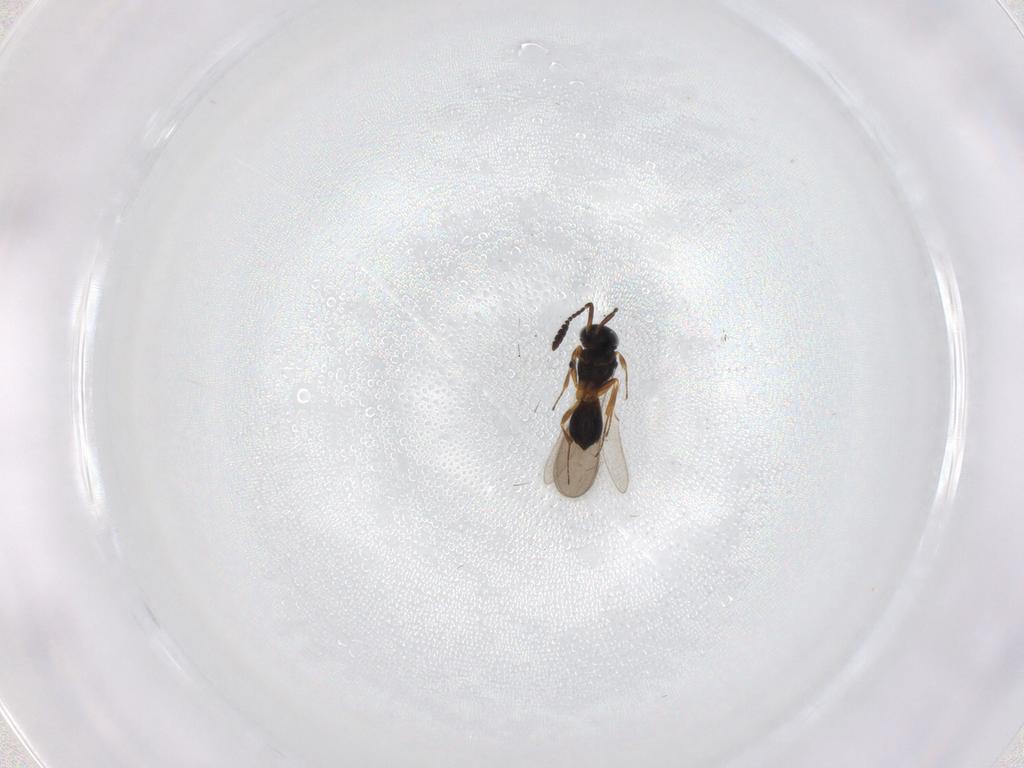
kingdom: Animalia
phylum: Arthropoda
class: Insecta
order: Hymenoptera
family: Scelionidae
